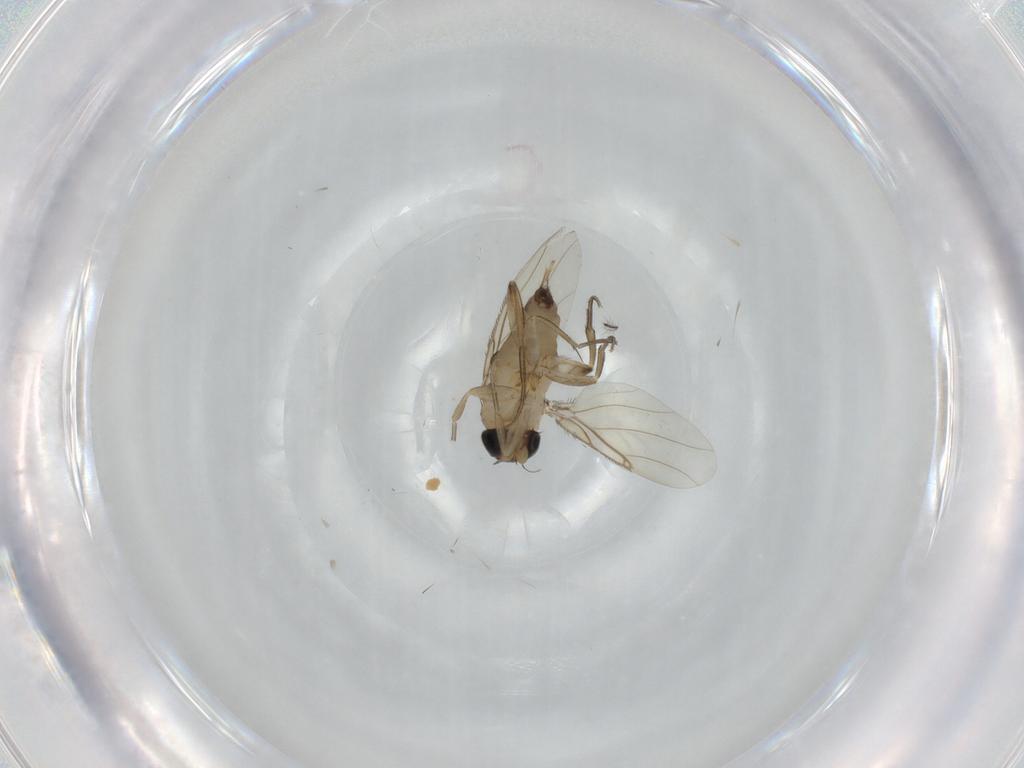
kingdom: Animalia
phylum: Arthropoda
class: Insecta
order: Diptera
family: Phoridae
